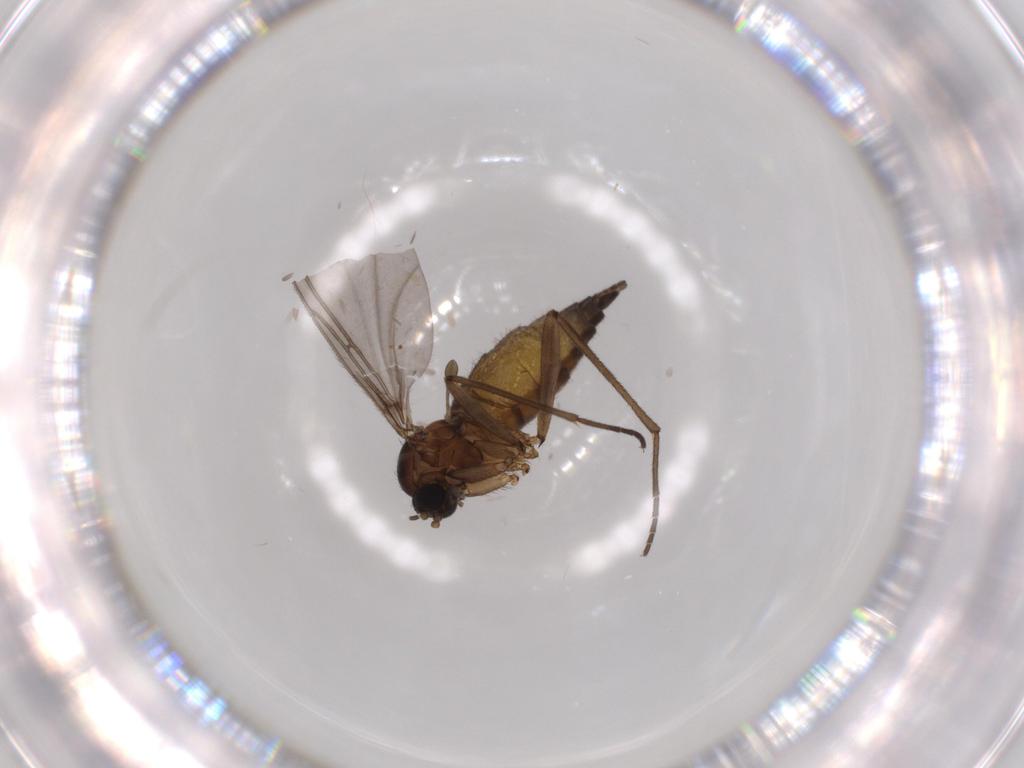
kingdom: Animalia
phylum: Arthropoda
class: Insecta
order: Diptera
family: Sciaridae
